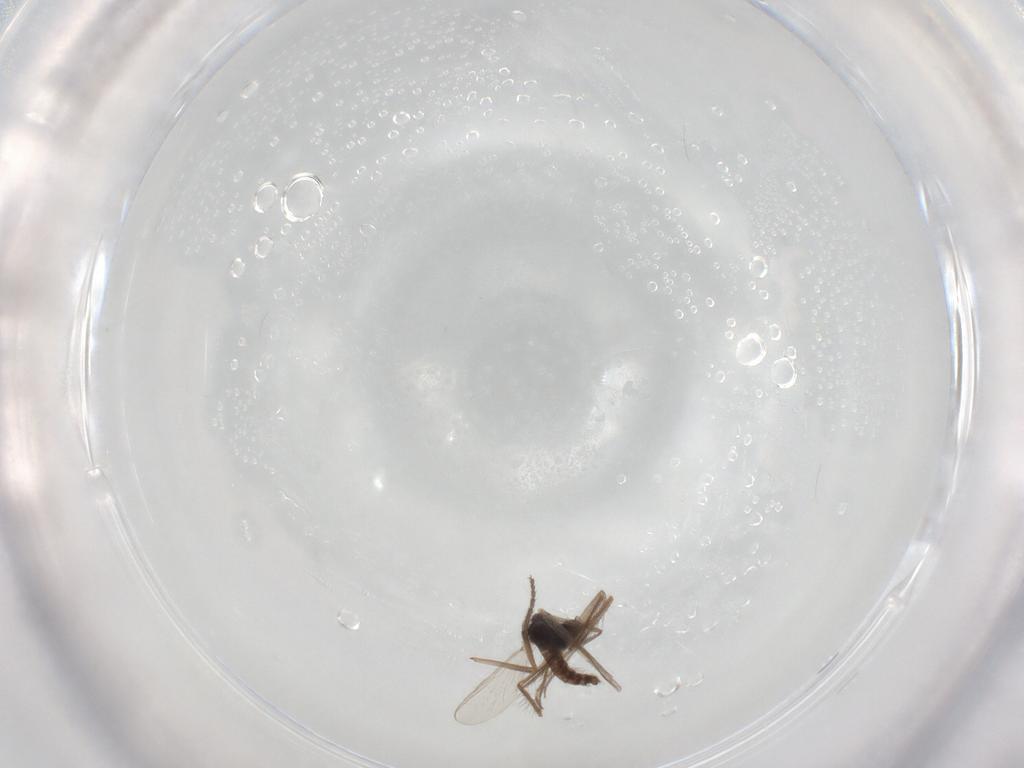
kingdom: Animalia
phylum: Arthropoda
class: Insecta
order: Diptera
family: Chironomidae
